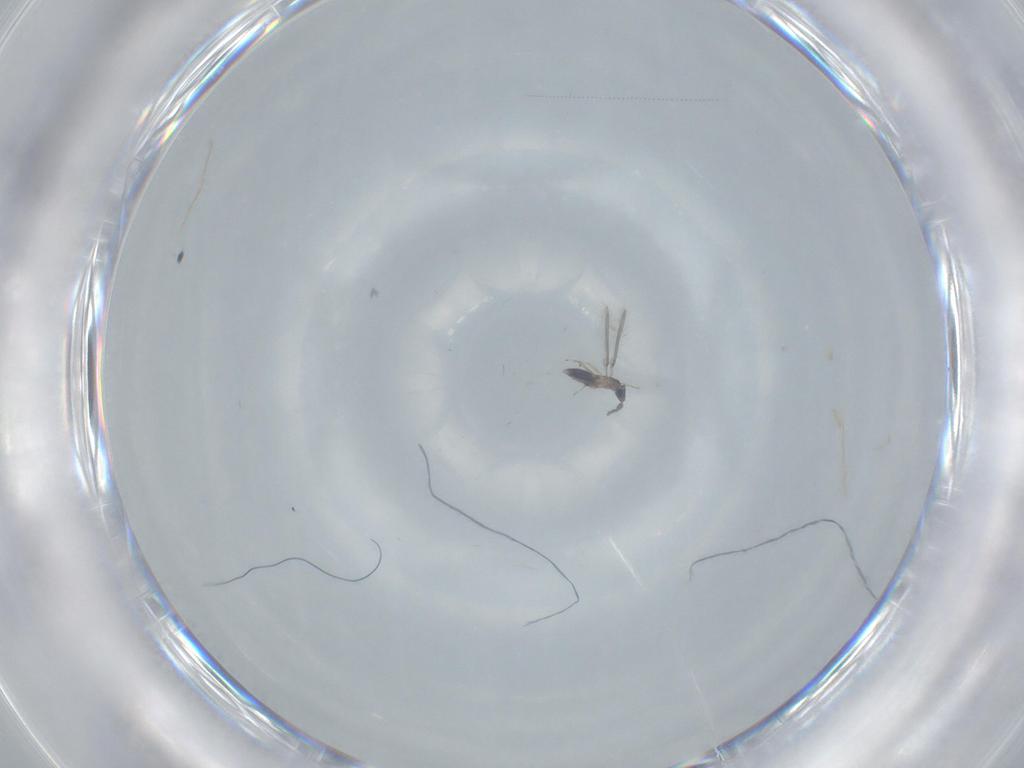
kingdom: Animalia
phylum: Arthropoda
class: Insecta
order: Hymenoptera
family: Mymaridae
